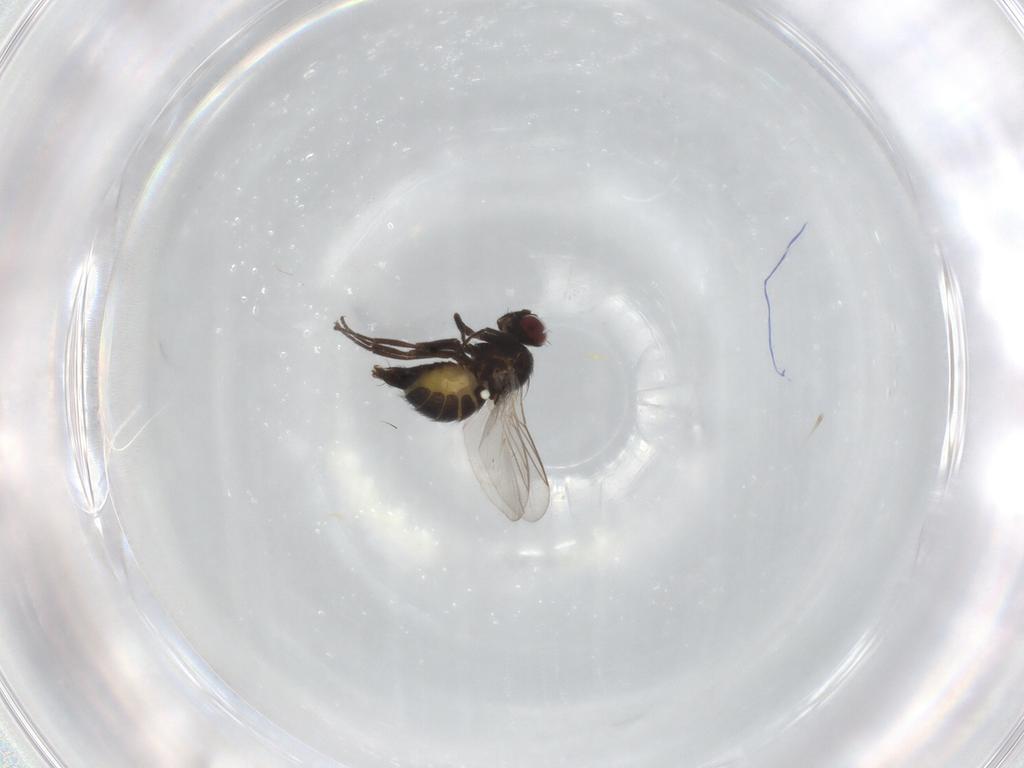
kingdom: Animalia
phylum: Arthropoda
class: Insecta
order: Diptera
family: Hybotidae
